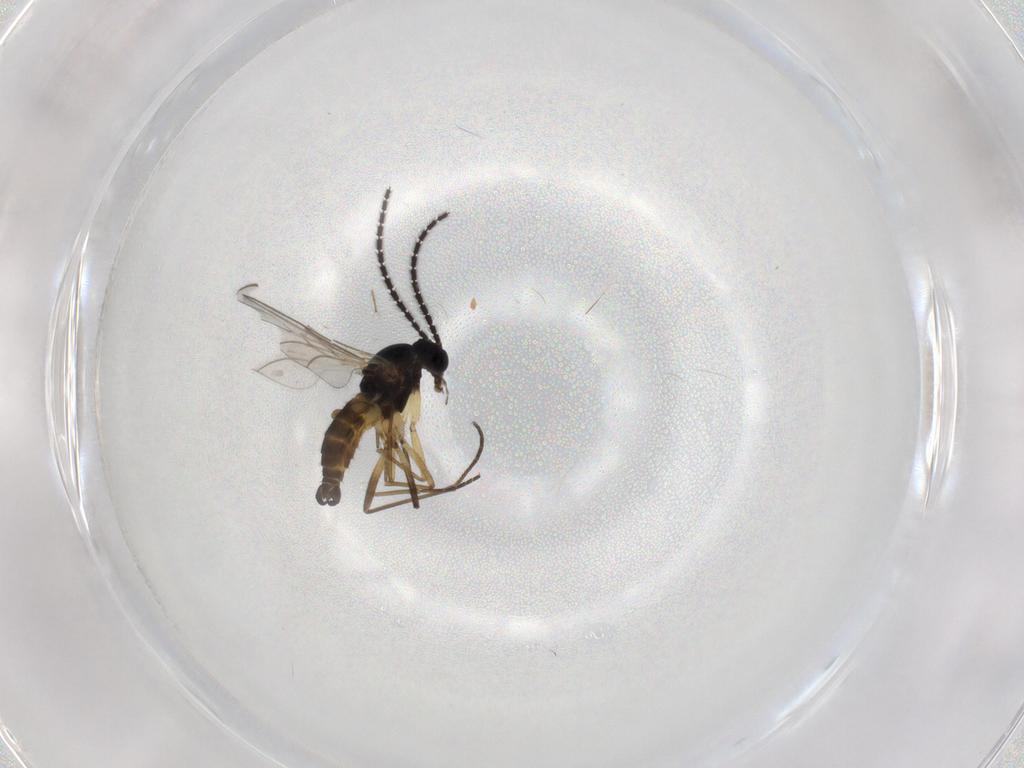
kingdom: Animalia
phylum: Arthropoda
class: Insecta
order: Diptera
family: Sciaridae
